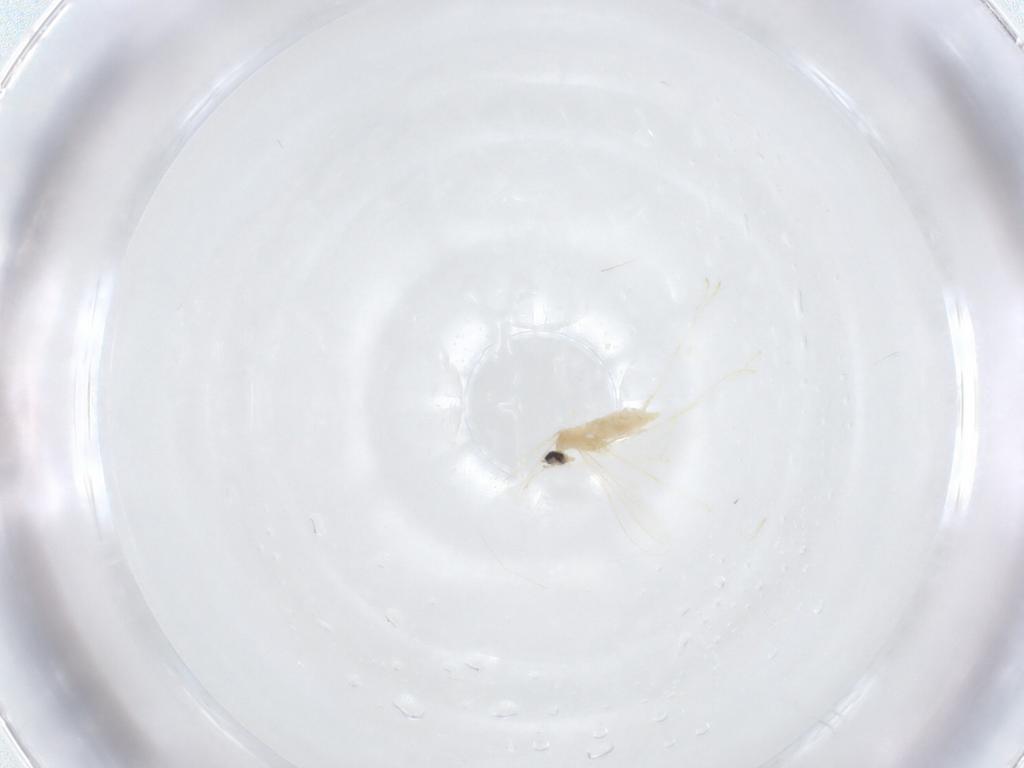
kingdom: Animalia
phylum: Arthropoda
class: Insecta
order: Diptera
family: Cecidomyiidae
